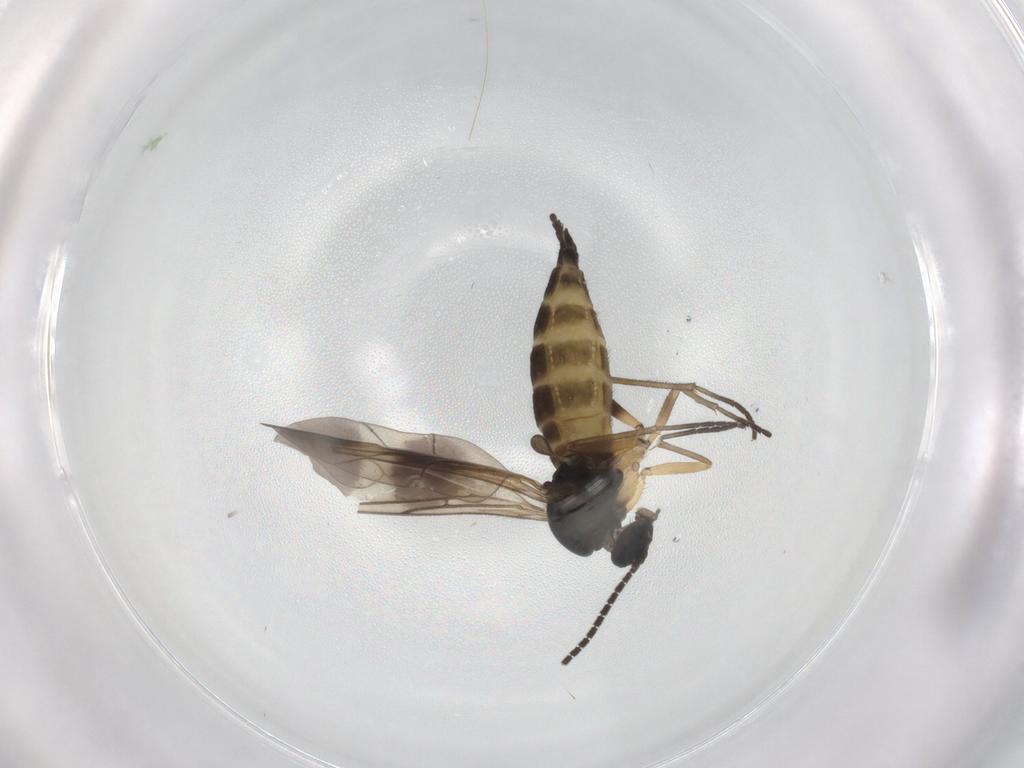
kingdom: Animalia
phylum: Arthropoda
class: Insecta
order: Diptera
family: Sciaridae
